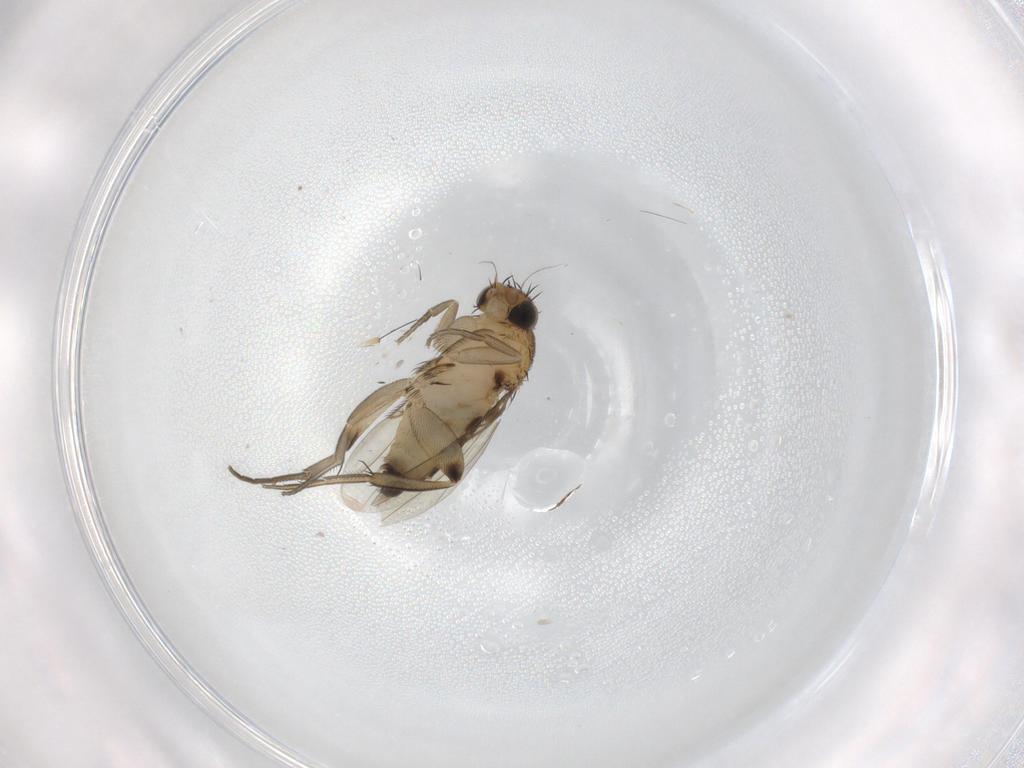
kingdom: Animalia
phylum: Arthropoda
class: Insecta
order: Diptera
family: Phoridae
